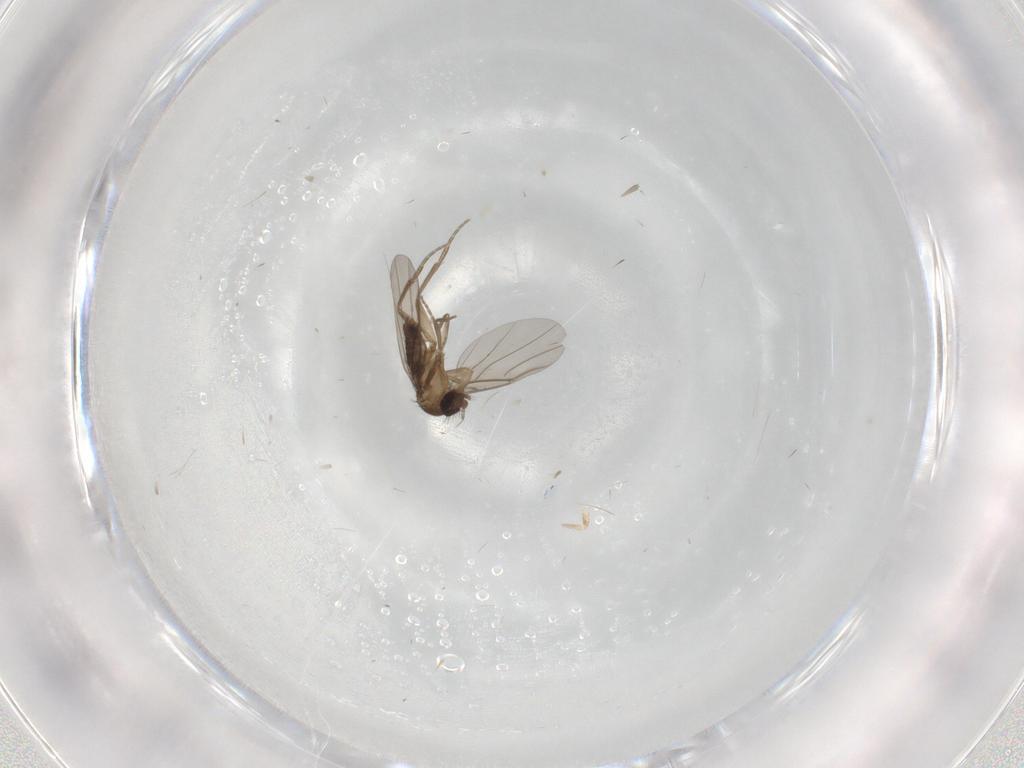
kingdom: Animalia
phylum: Arthropoda
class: Insecta
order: Diptera
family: Phoridae
